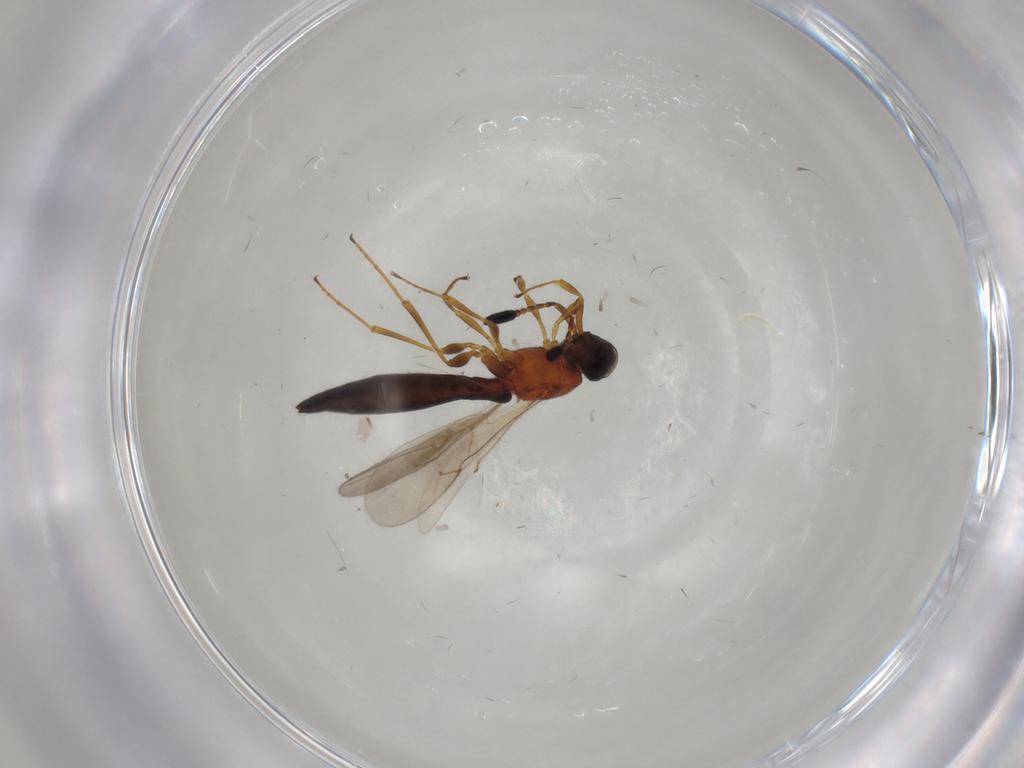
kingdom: Animalia
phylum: Arthropoda
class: Insecta
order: Hymenoptera
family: Scelionidae
